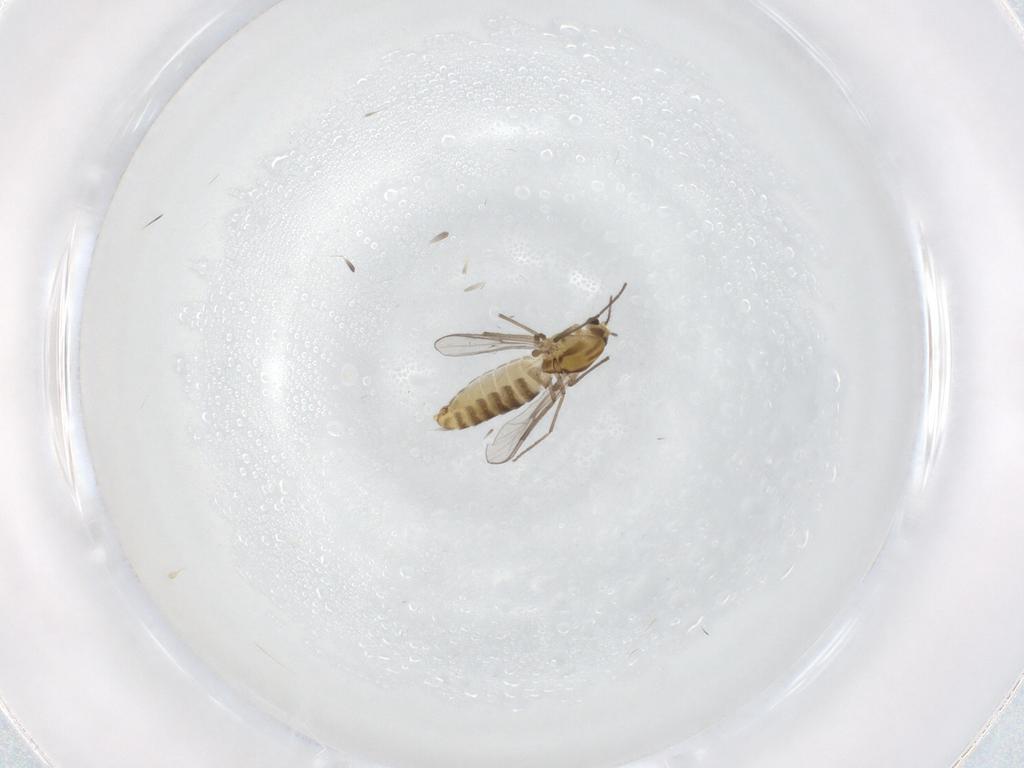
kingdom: Animalia
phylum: Arthropoda
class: Insecta
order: Diptera
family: Chironomidae
